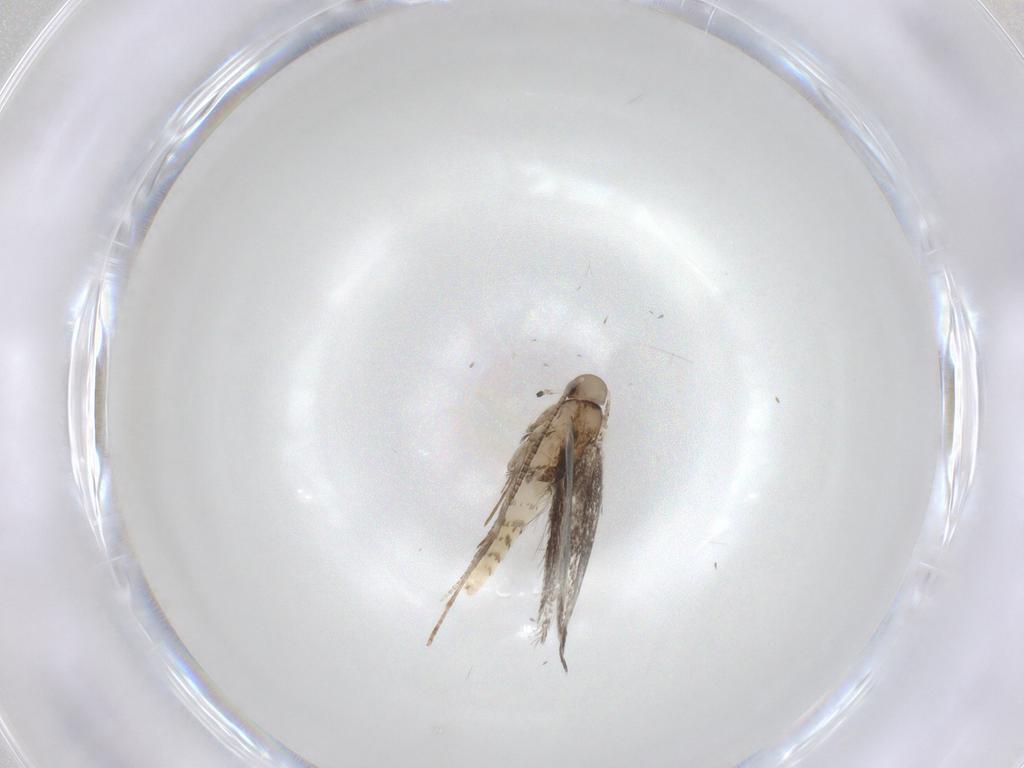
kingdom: Animalia
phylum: Arthropoda
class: Insecta
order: Lepidoptera
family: Gracillariidae
